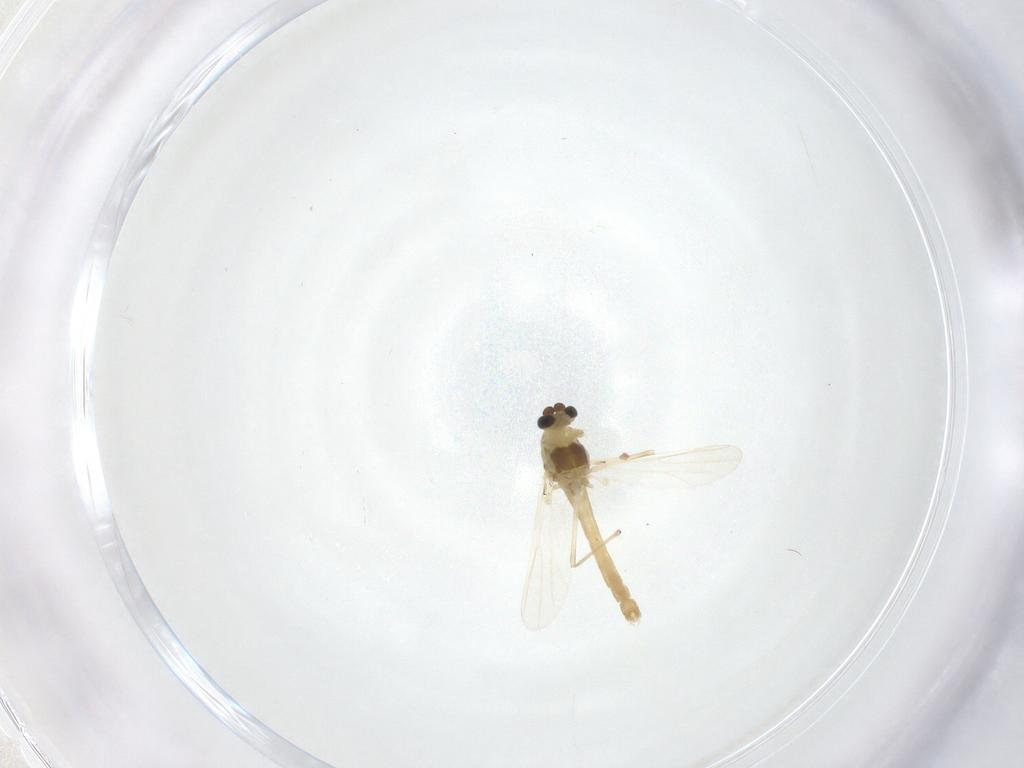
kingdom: Animalia
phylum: Arthropoda
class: Insecta
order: Diptera
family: Chironomidae
